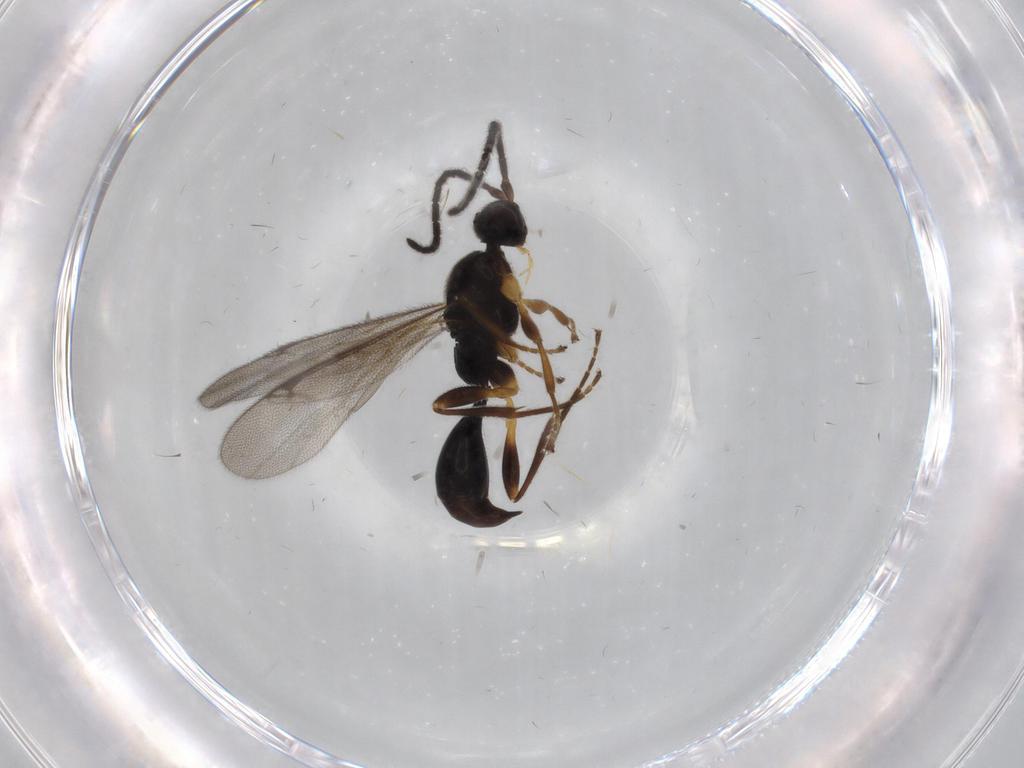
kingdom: Animalia
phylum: Arthropoda
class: Insecta
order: Hymenoptera
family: Proctotrupidae
